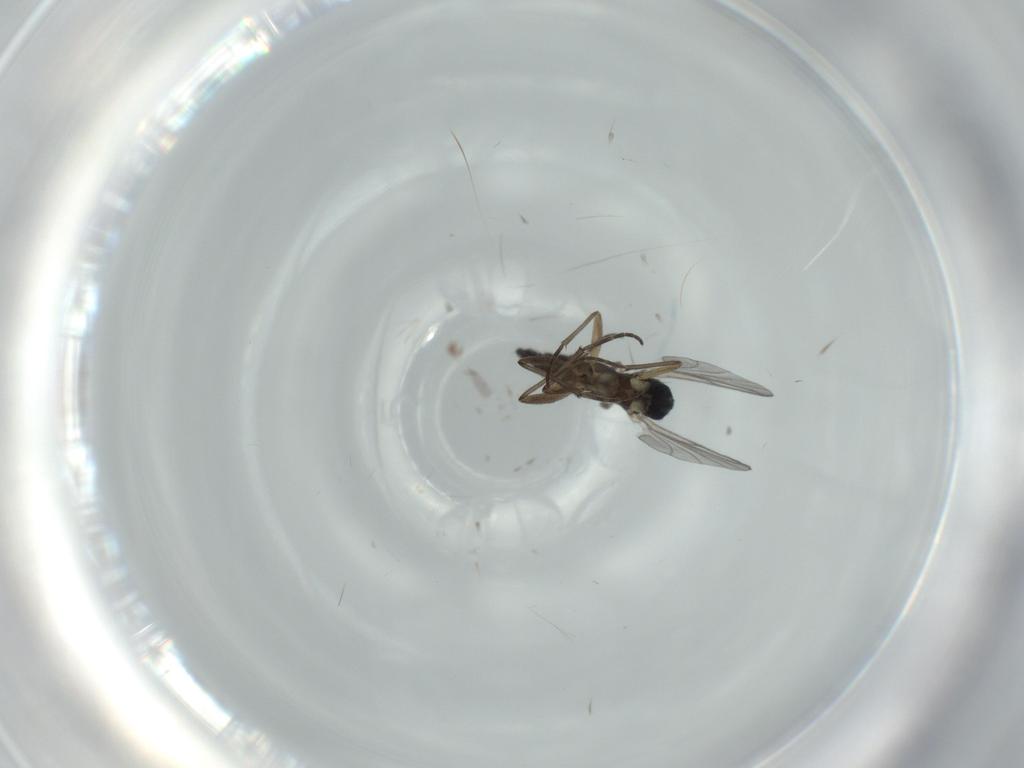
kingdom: Animalia
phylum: Arthropoda
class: Insecta
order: Diptera
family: Sciaridae
